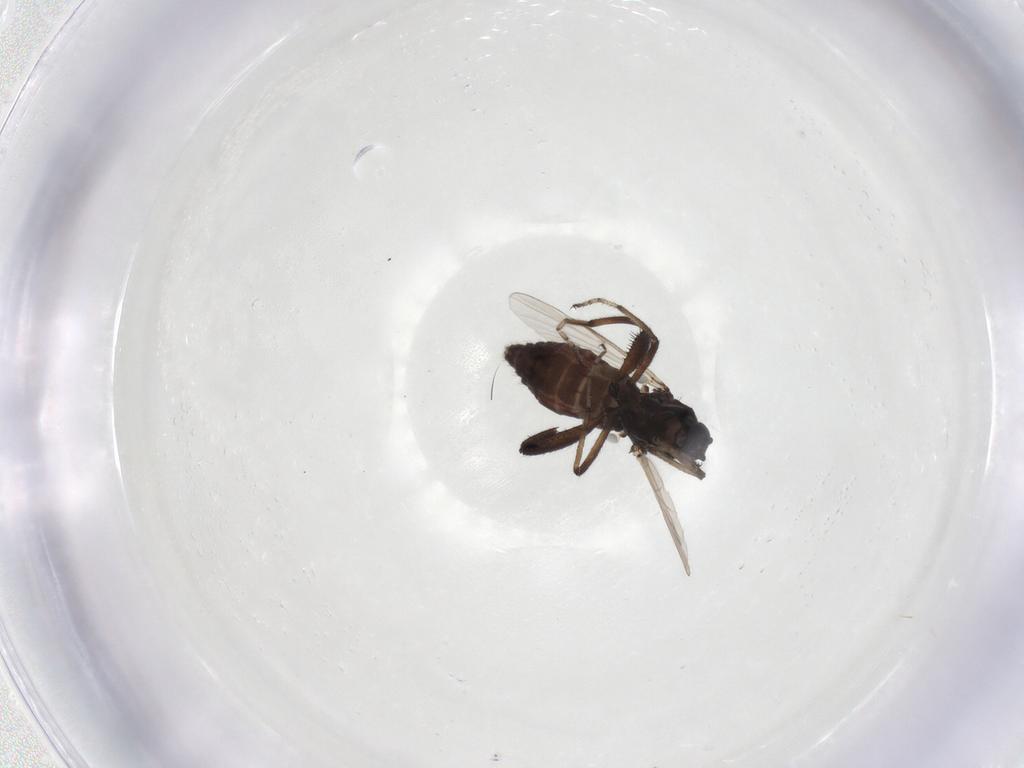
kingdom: Animalia
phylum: Arthropoda
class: Insecta
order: Diptera
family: Ceratopogonidae
